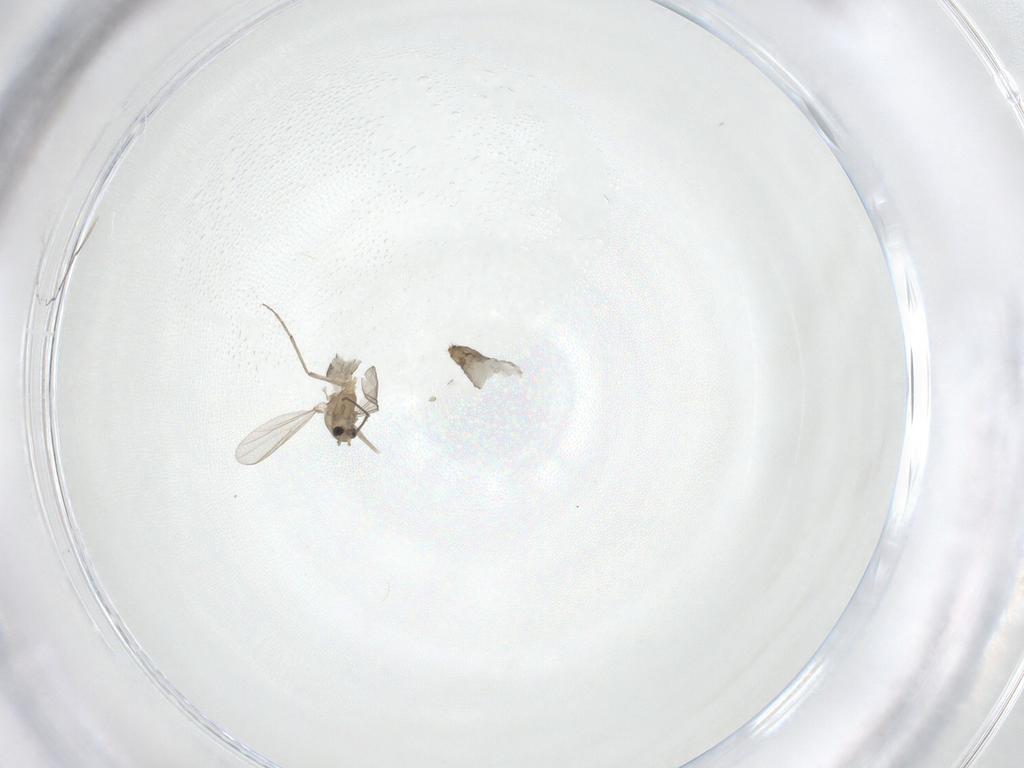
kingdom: Animalia
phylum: Arthropoda
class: Insecta
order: Diptera
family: Chironomidae
